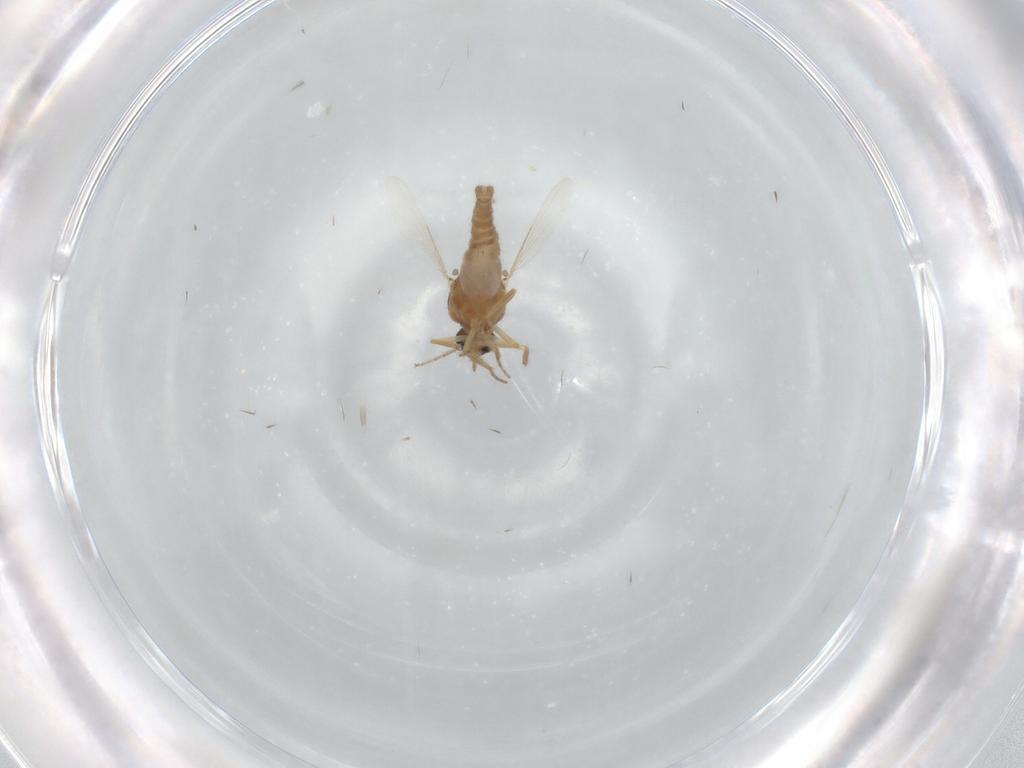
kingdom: Animalia
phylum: Arthropoda
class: Insecta
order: Diptera
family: Ceratopogonidae
